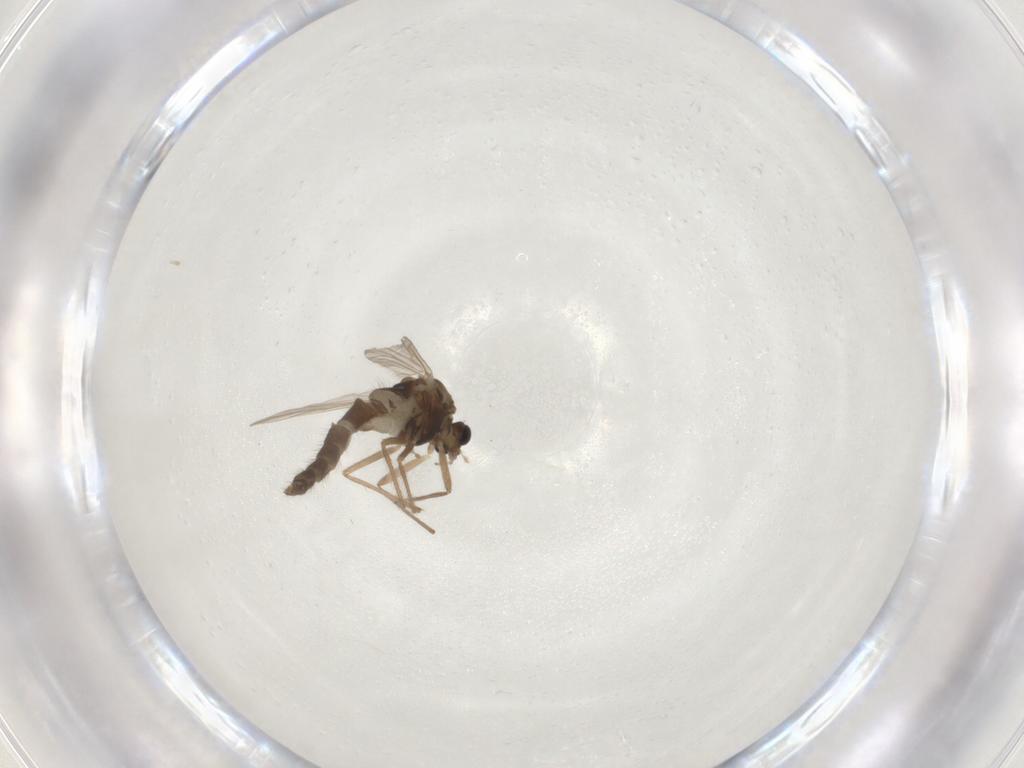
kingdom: Animalia
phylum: Arthropoda
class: Insecta
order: Diptera
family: Chironomidae
